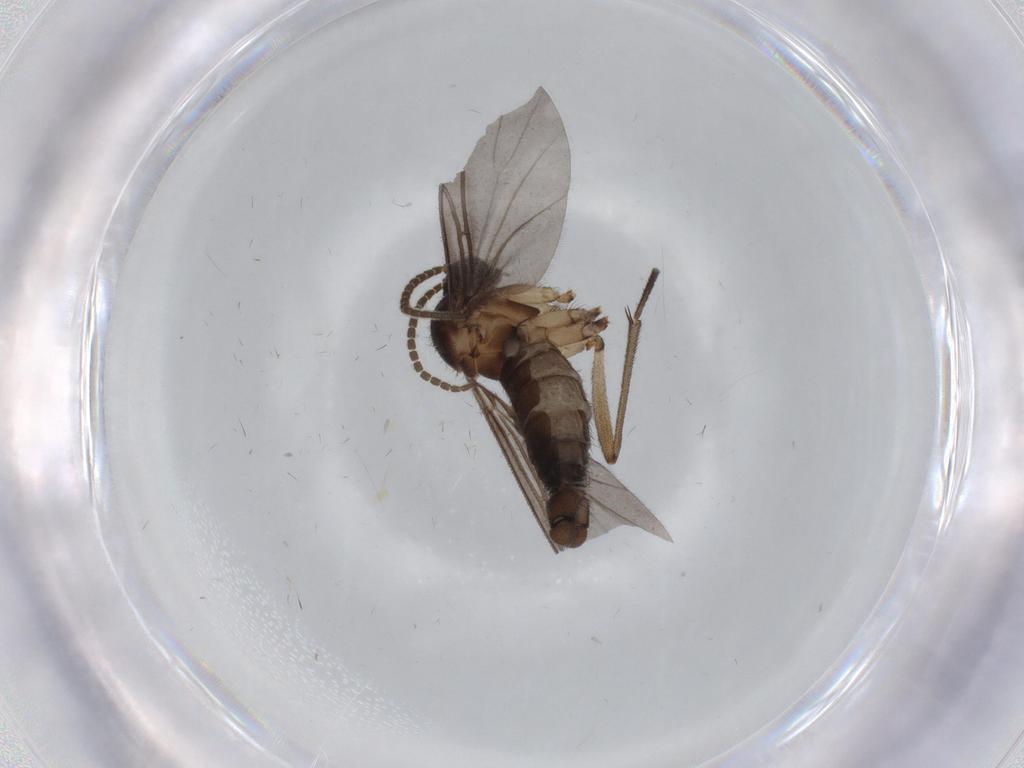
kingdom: Animalia
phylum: Arthropoda
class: Insecta
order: Diptera
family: Bibionidae
